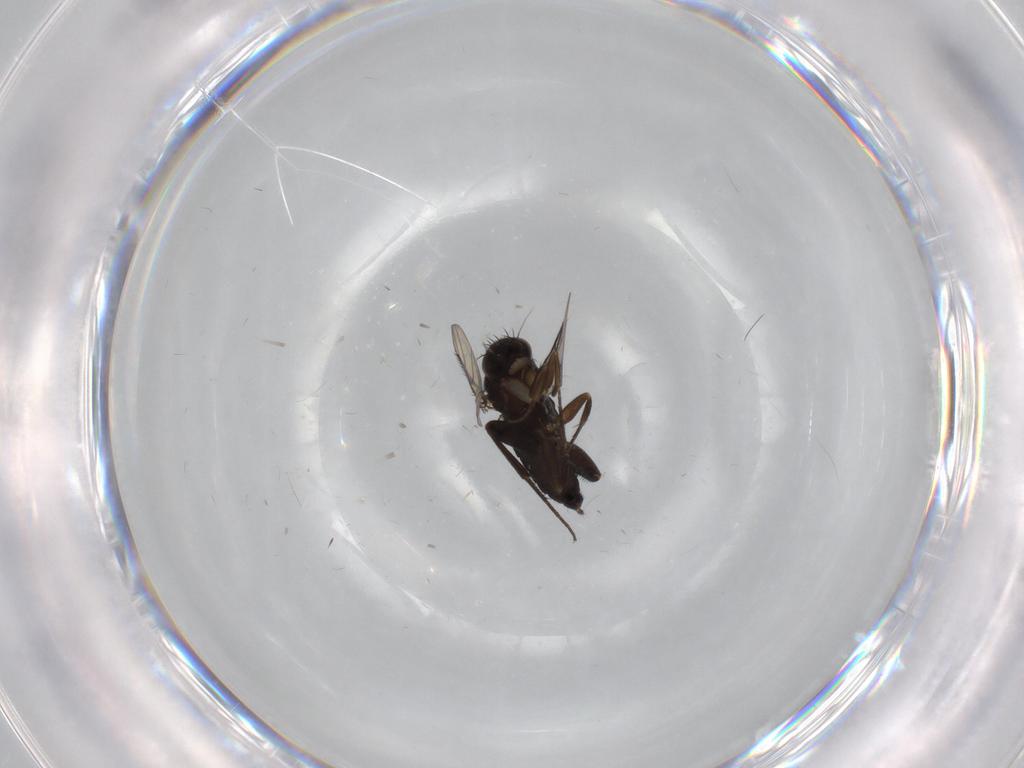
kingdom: Animalia
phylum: Arthropoda
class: Insecta
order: Diptera
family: Phoridae
